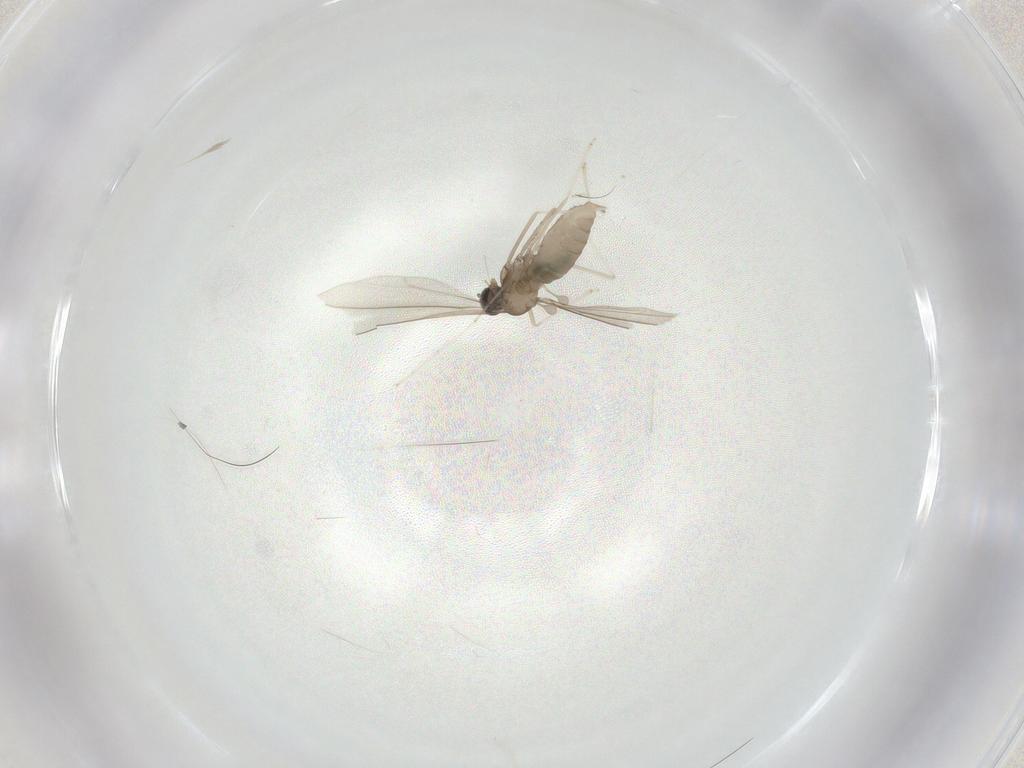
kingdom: Animalia
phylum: Arthropoda
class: Insecta
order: Diptera
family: Cecidomyiidae
